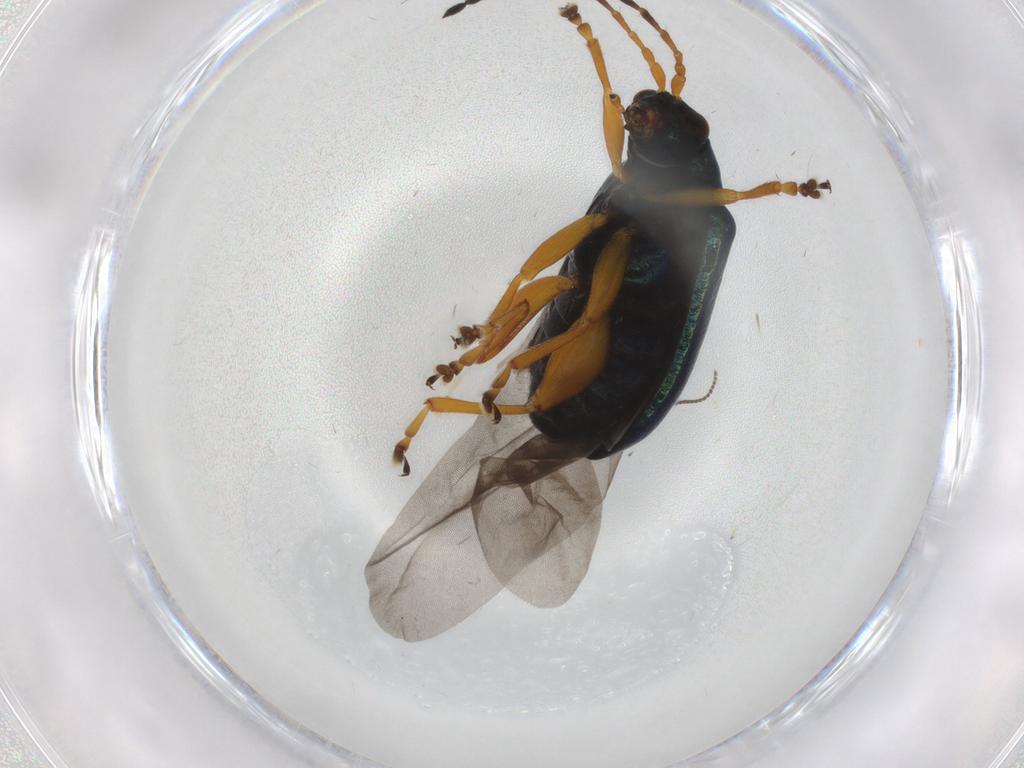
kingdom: Animalia
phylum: Arthropoda
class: Insecta
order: Coleoptera
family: Chrysomelidae
